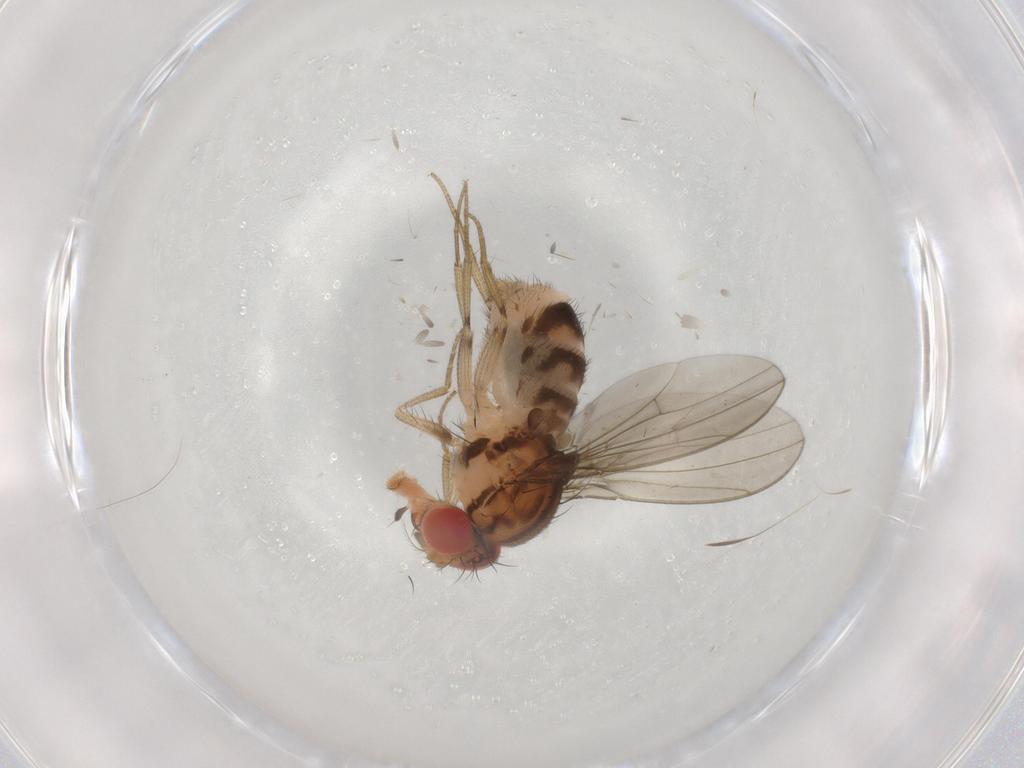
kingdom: Animalia
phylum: Arthropoda
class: Insecta
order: Diptera
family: Drosophilidae
